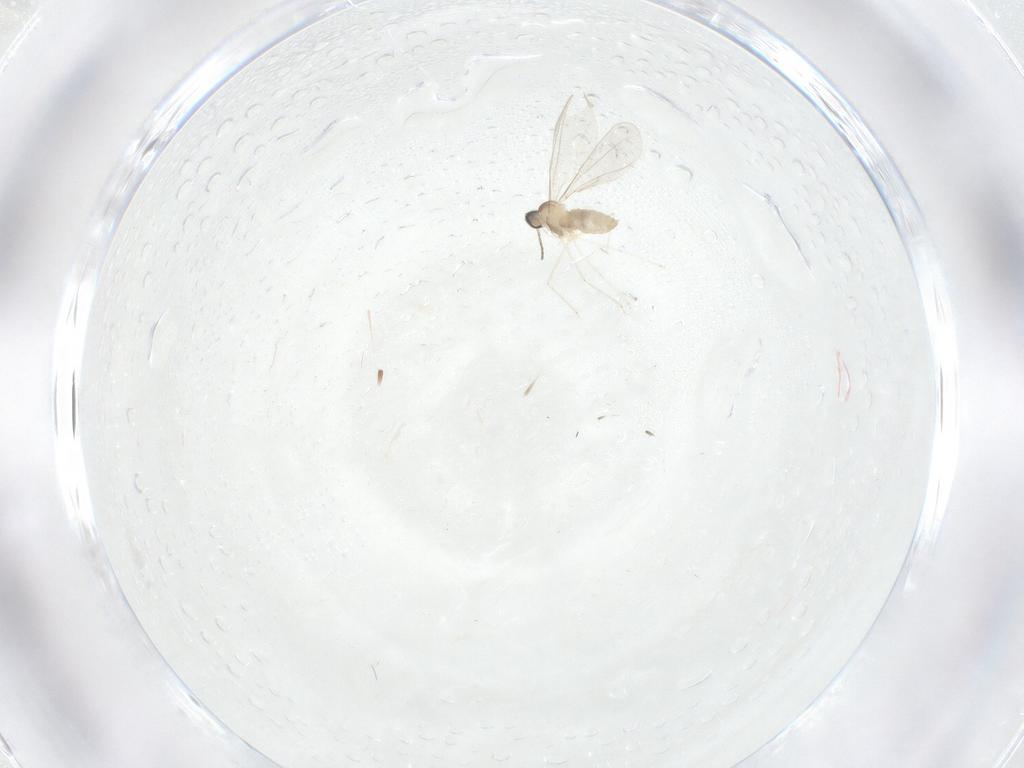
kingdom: Animalia
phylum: Arthropoda
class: Insecta
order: Diptera
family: Cecidomyiidae
